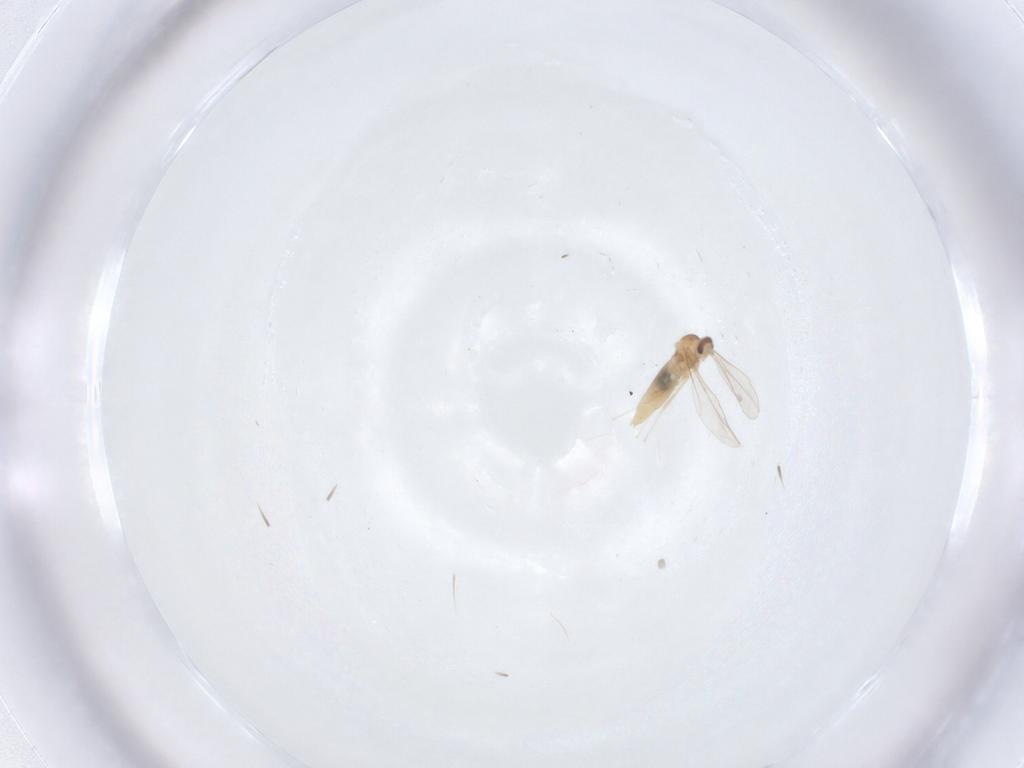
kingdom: Animalia
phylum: Arthropoda
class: Insecta
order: Diptera
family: Cecidomyiidae
